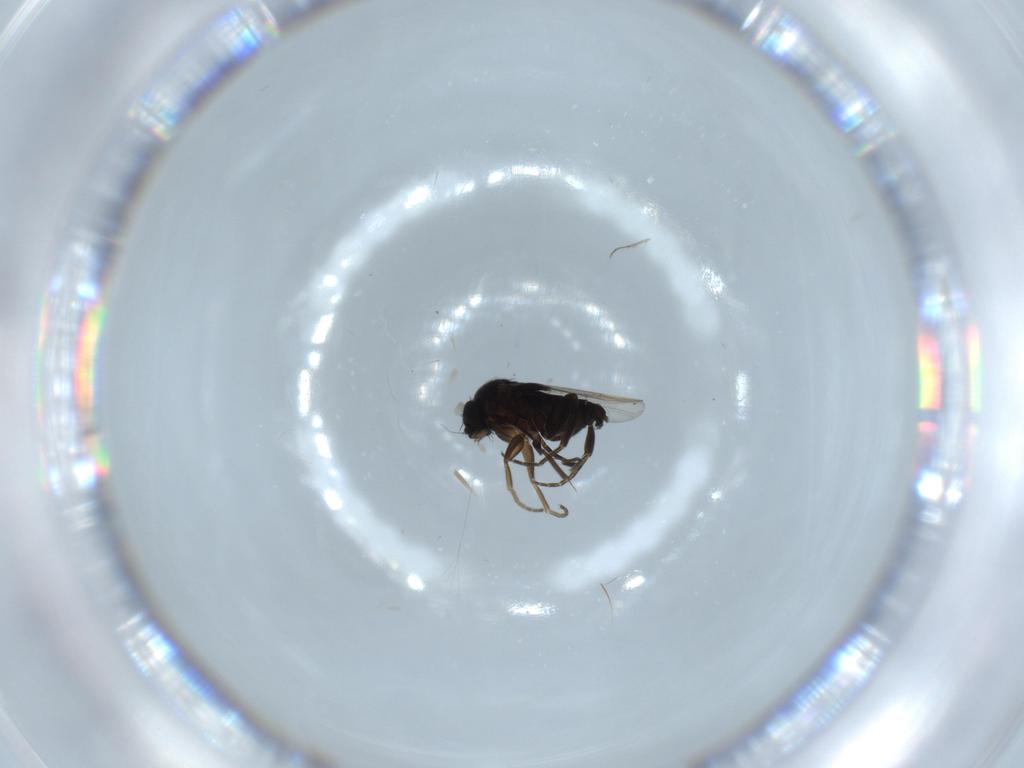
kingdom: Animalia
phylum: Arthropoda
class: Insecta
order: Diptera
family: Phoridae
